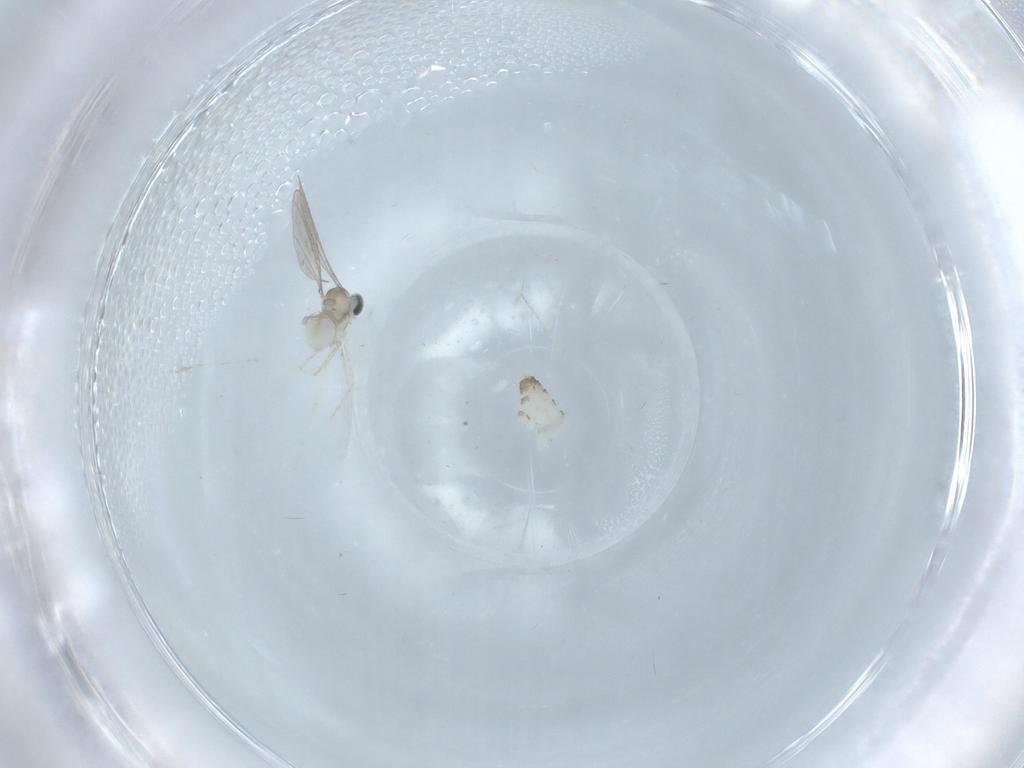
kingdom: Animalia
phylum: Arthropoda
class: Insecta
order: Diptera
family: Cecidomyiidae
